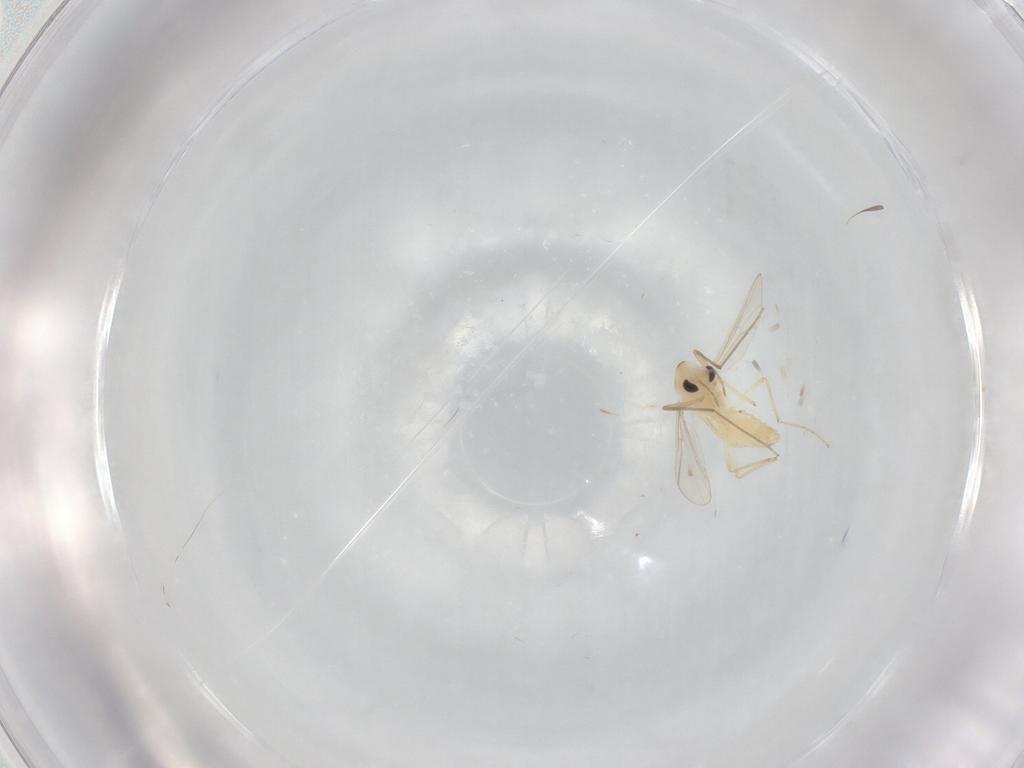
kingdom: Animalia
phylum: Arthropoda
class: Insecta
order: Diptera
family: Chironomidae
